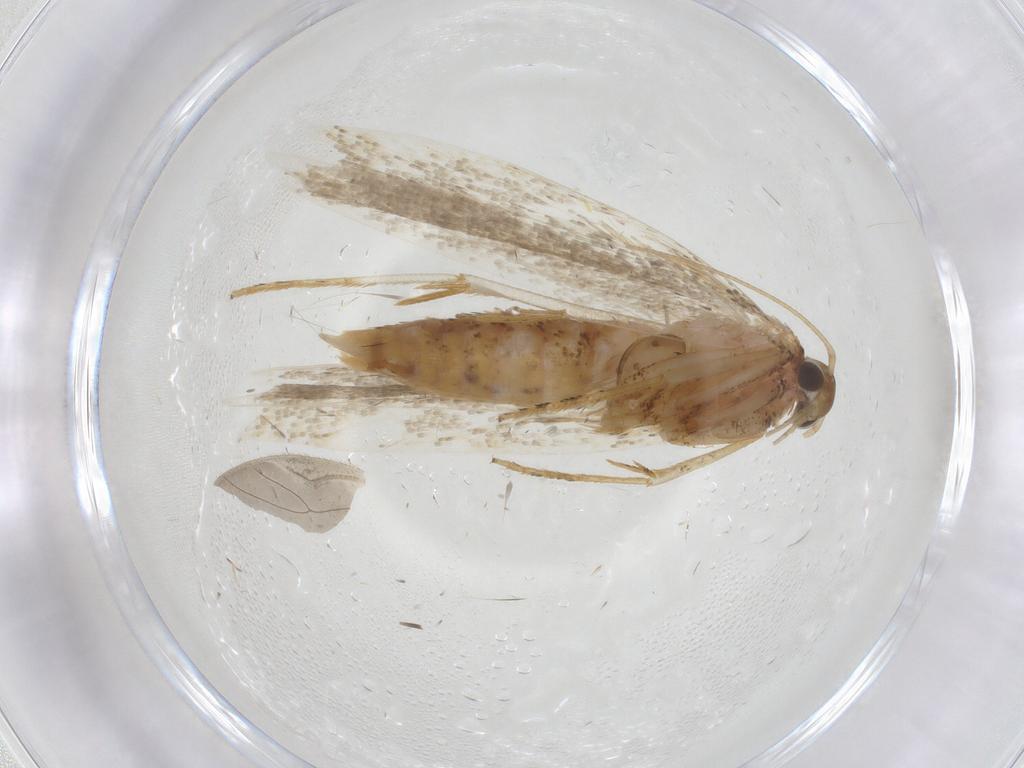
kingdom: Animalia
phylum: Arthropoda
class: Insecta
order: Lepidoptera
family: Crambidae
